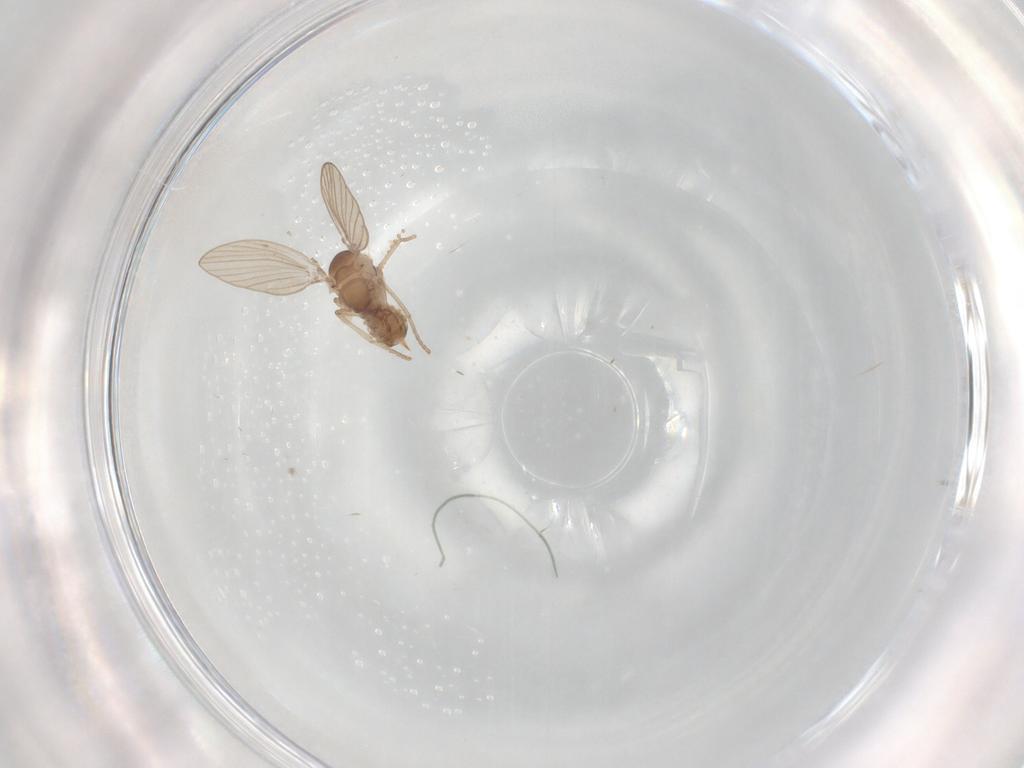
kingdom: Animalia
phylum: Arthropoda
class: Insecta
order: Diptera
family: Psychodidae
